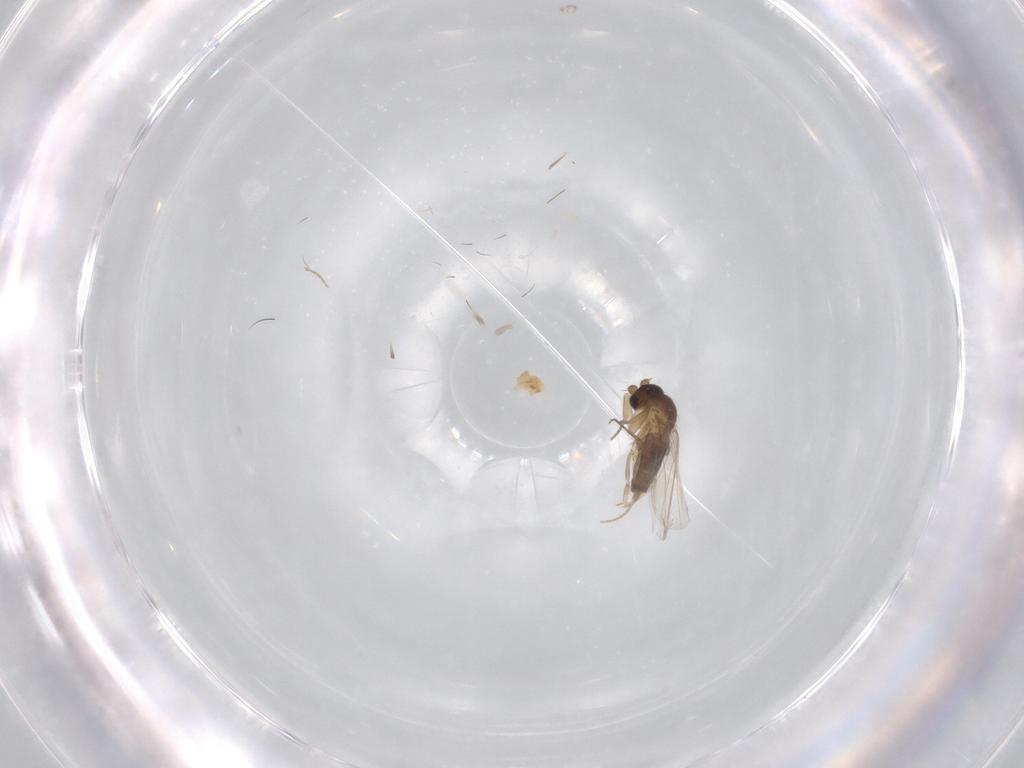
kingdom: Animalia
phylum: Arthropoda
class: Insecta
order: Diptera
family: Phoridae
